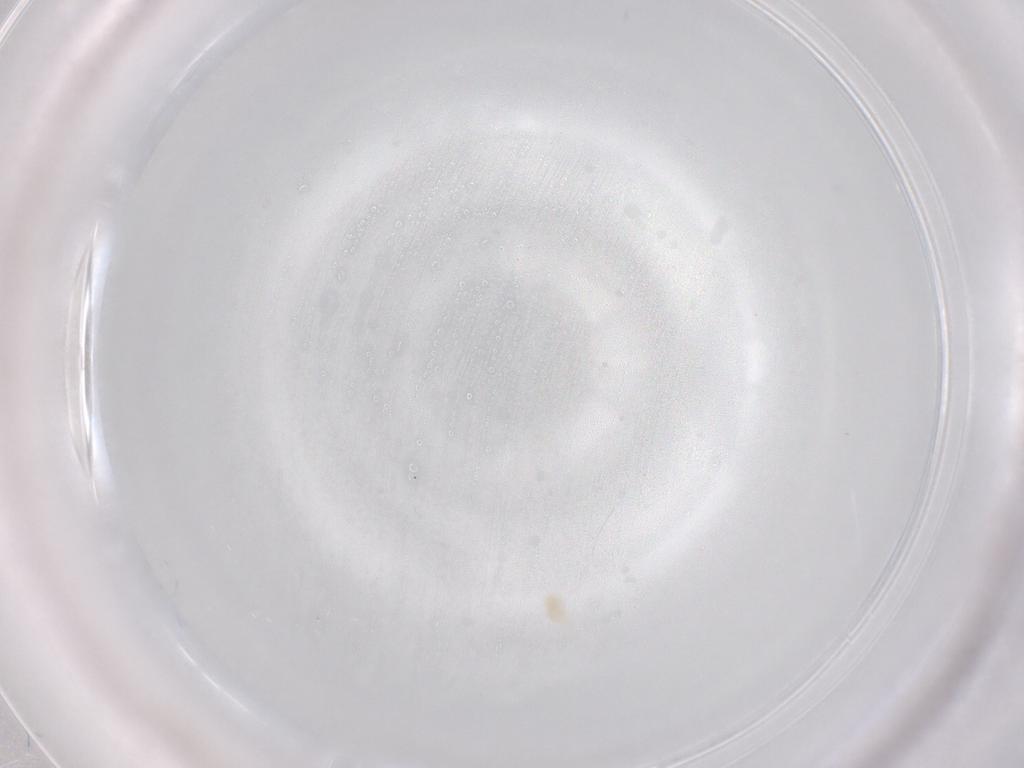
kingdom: Animalia
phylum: Arthropoda
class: Arachnida
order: Trombidiformes
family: Eupodidae
